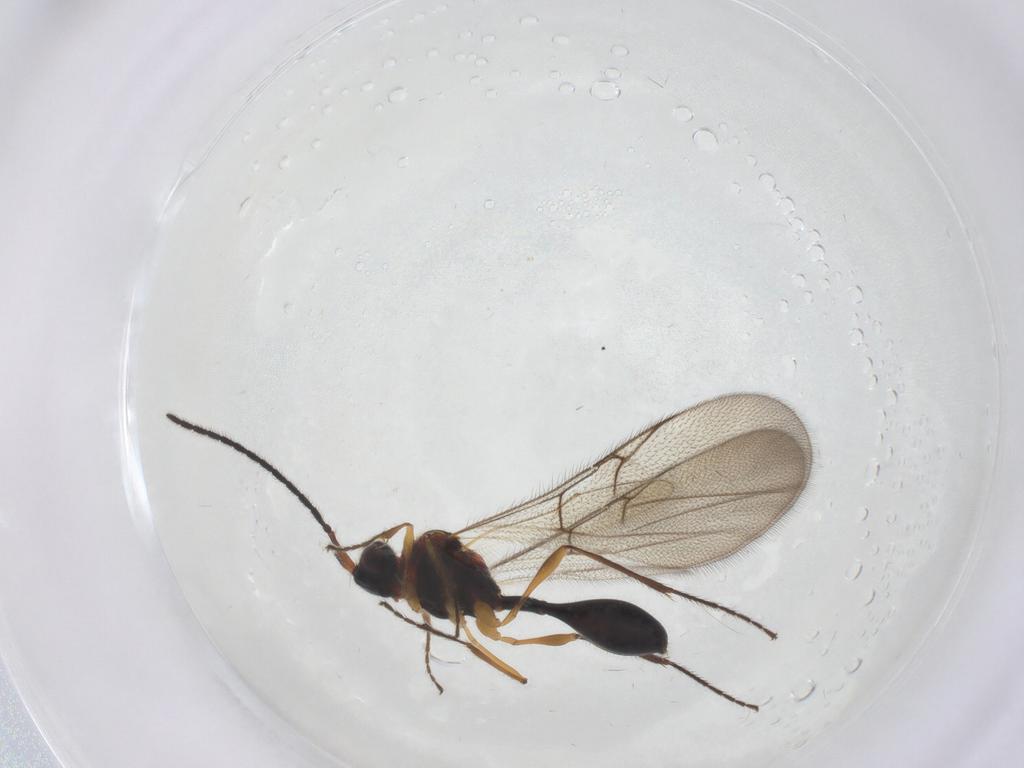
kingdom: Animalia
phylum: Arthropoda
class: Insecta
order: Hymenoptera
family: Diapriidae
